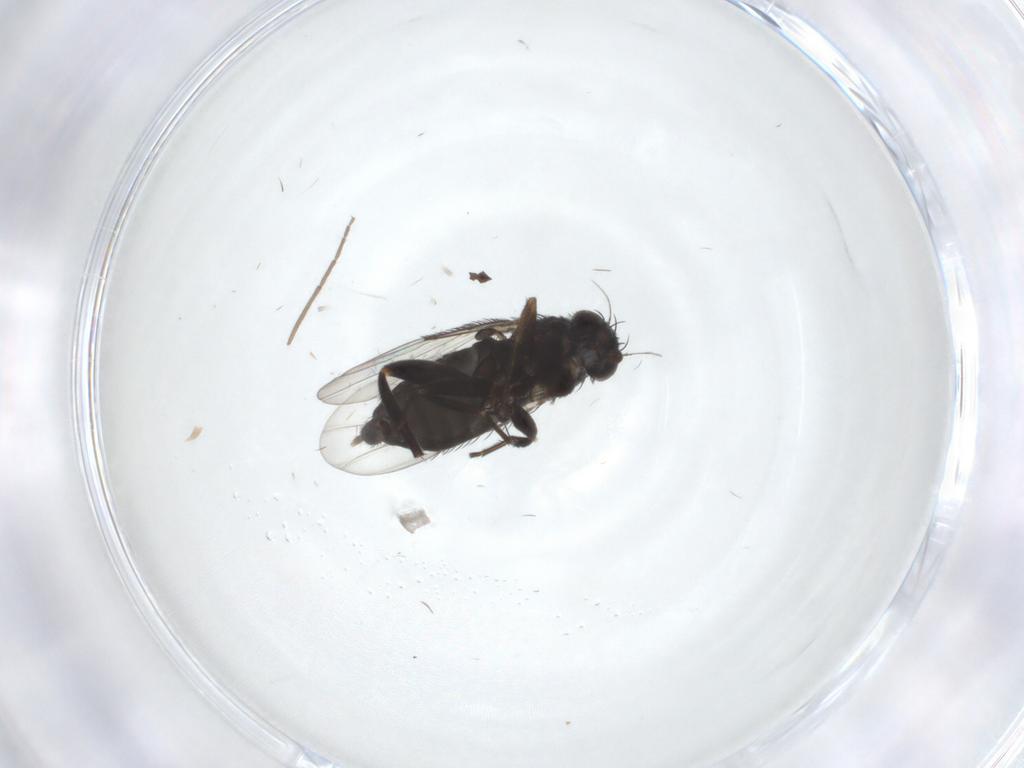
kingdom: Animalia
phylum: Arthropoda
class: Insecta
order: Diptera
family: Phoridae
